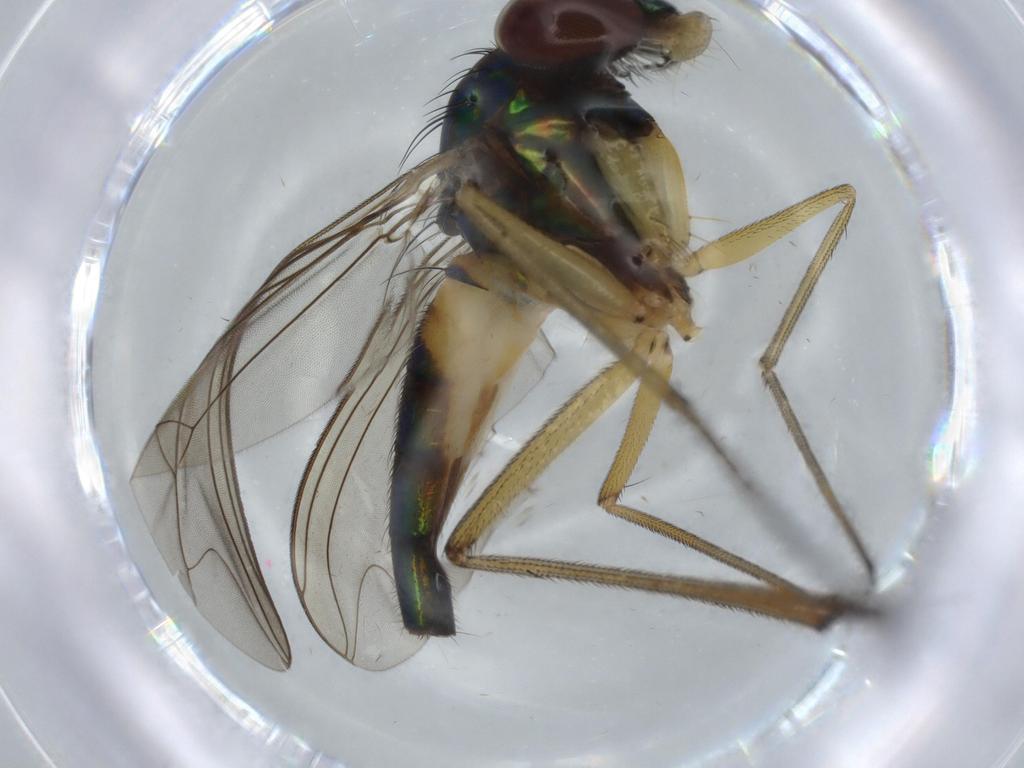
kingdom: Animalia
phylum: Arthropoda
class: Insecta
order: Diptera
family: Dolichopodidae
